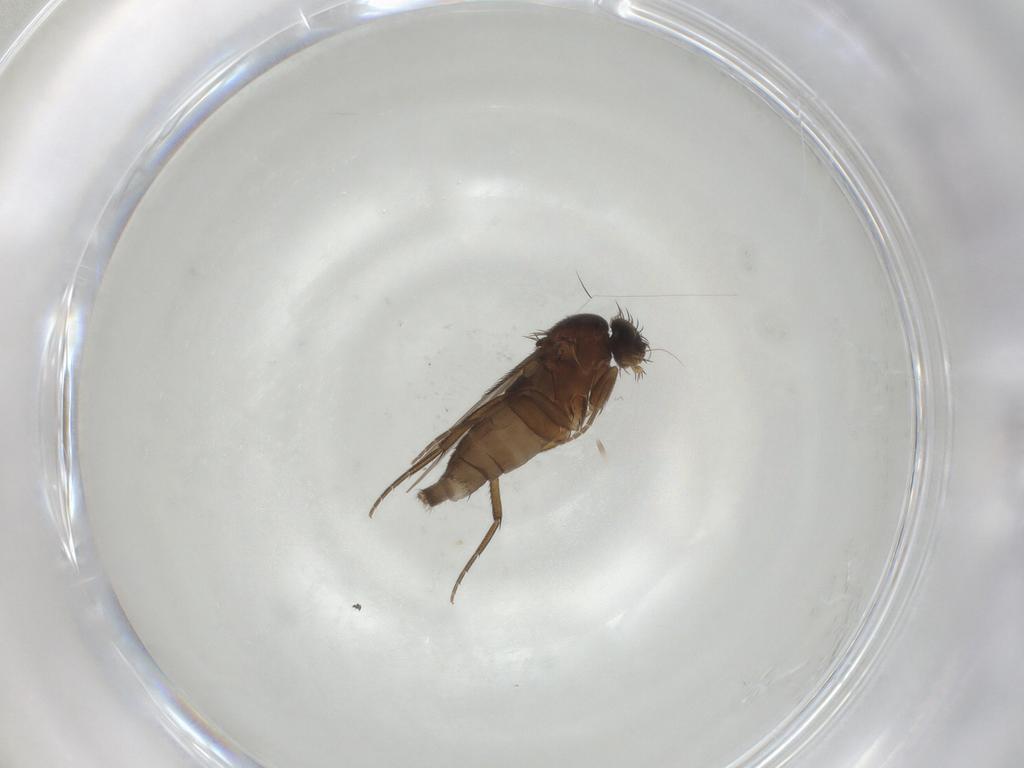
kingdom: Animalia
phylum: Arthropoda
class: Insecta
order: Diptera
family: Phoridae
